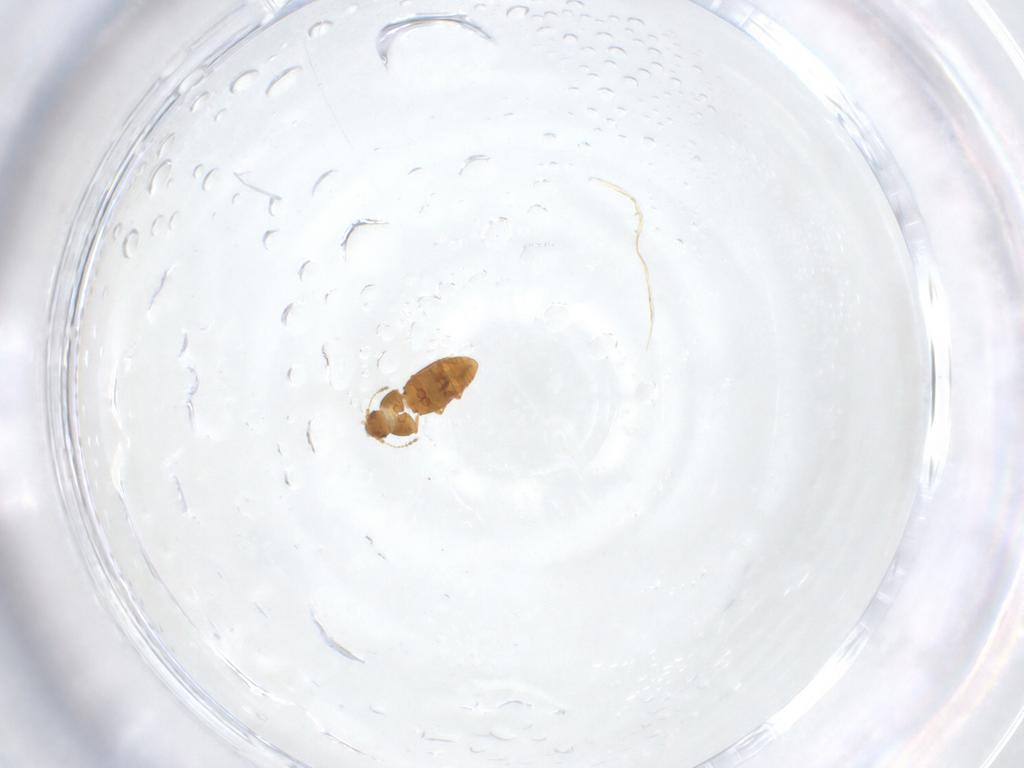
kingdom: Animalia
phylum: Arthropoda
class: Insecta
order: Coleoptera
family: Ptiliidae
